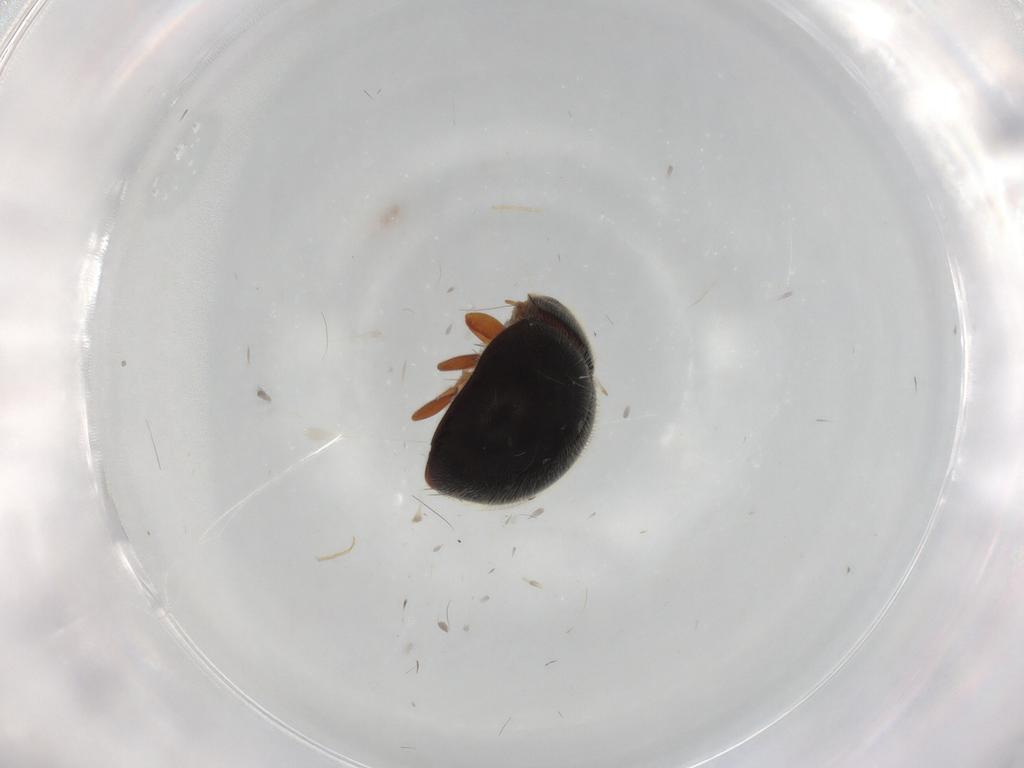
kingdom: Animalia
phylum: Arthropoda
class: Insecta
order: Coleoptera
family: Coccinellidae
